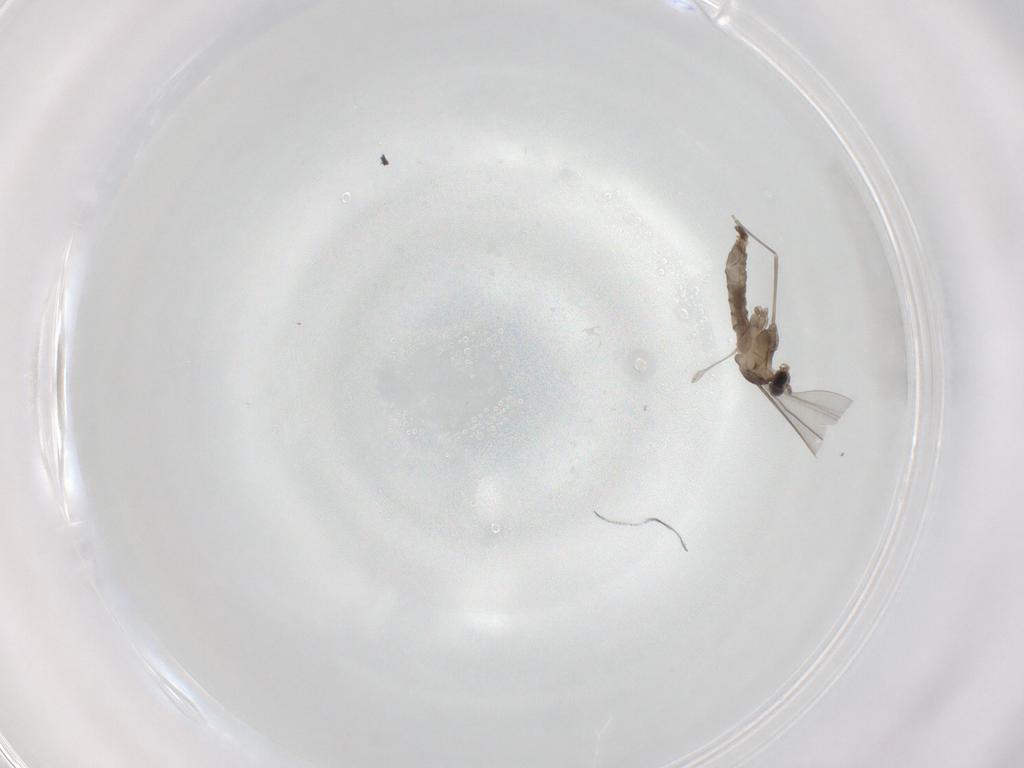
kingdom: Animalia
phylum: Arthropoda
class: Insecta
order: Diptera
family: Cecidomyiidae
